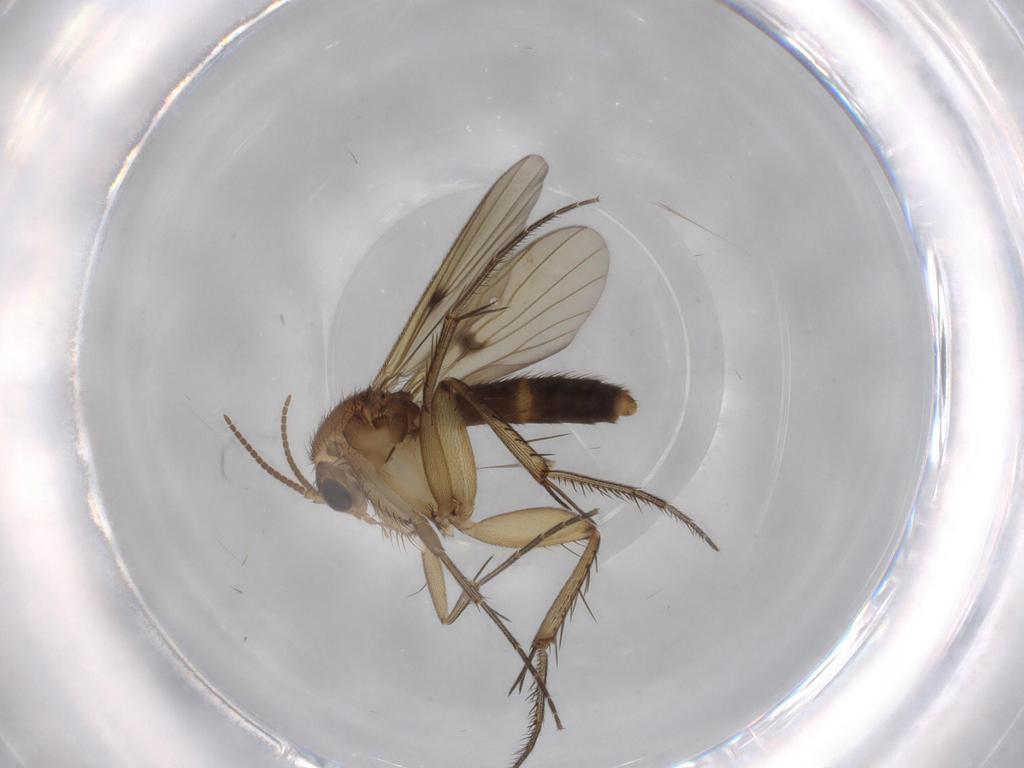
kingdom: Animalia
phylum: Arthropoda
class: Insecta
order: Diptera
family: Mycetophilidae
